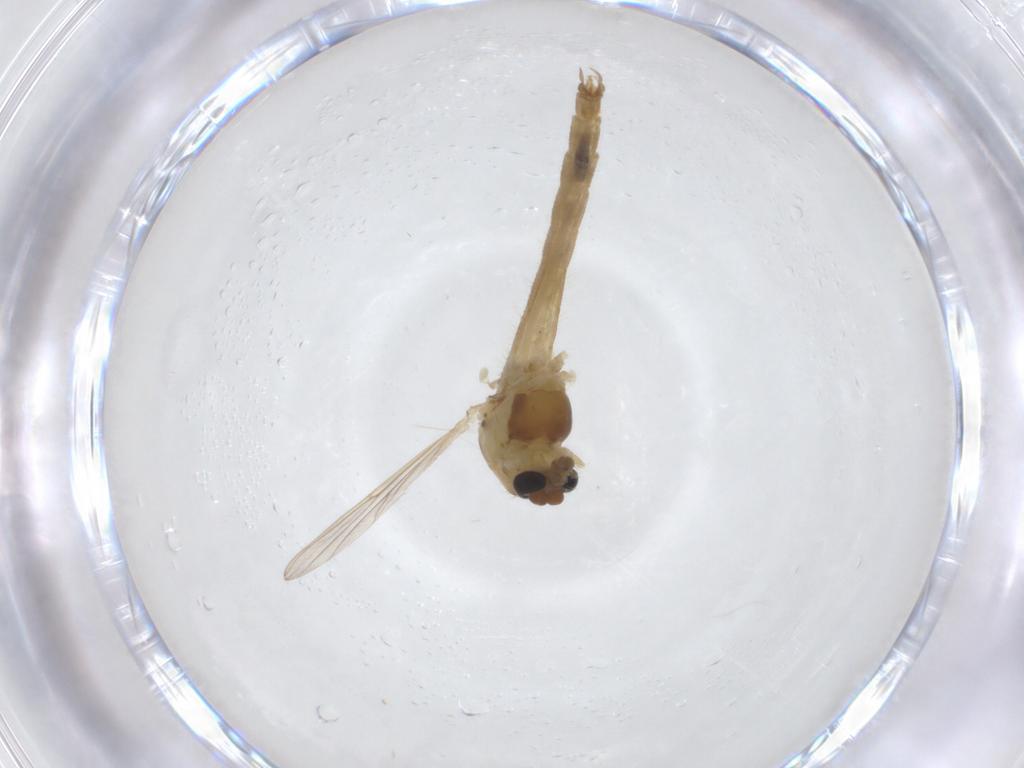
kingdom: Animalia
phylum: Arthropoda
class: Insecta
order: Diptera
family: Chironomidae
